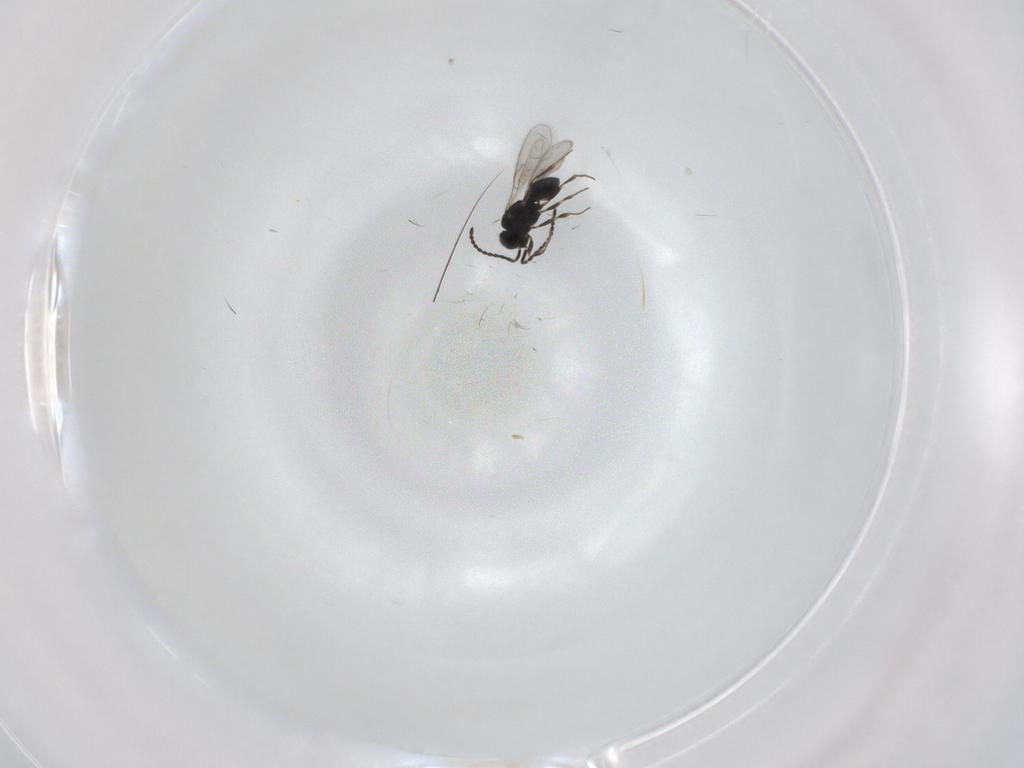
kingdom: Animalia
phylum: Arthropoda
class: Insecta
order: Hymenoptera
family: Scelionidae
